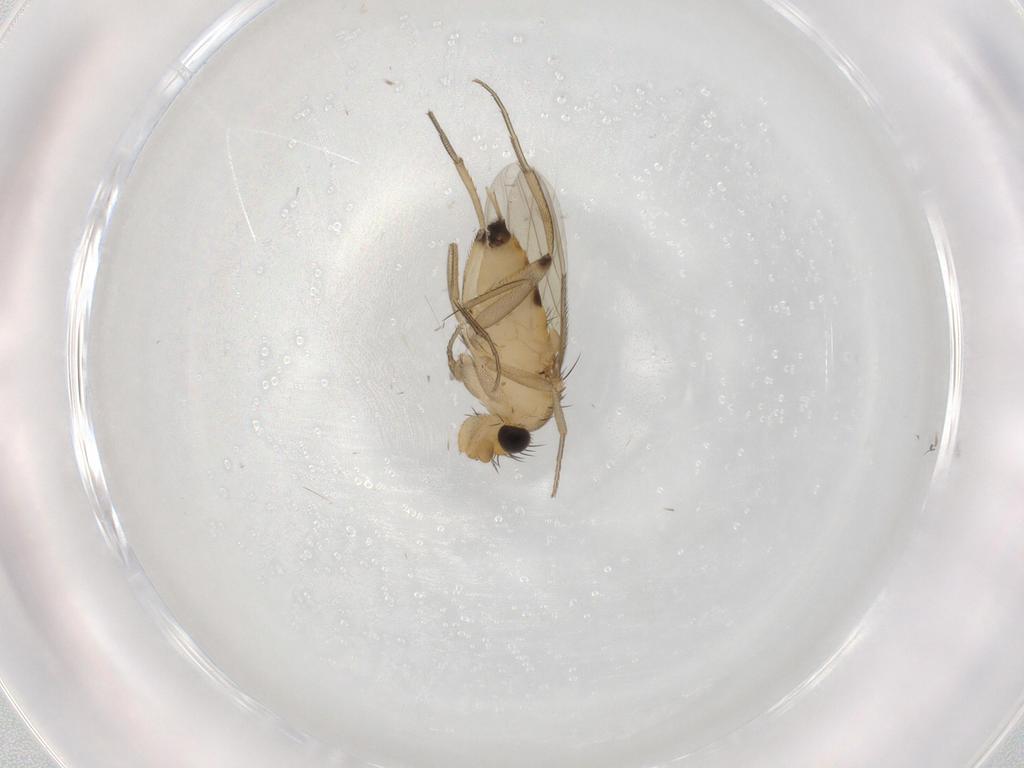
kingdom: Animalia
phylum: Arthropoda
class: Insecta
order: Diptera
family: Phoridae
